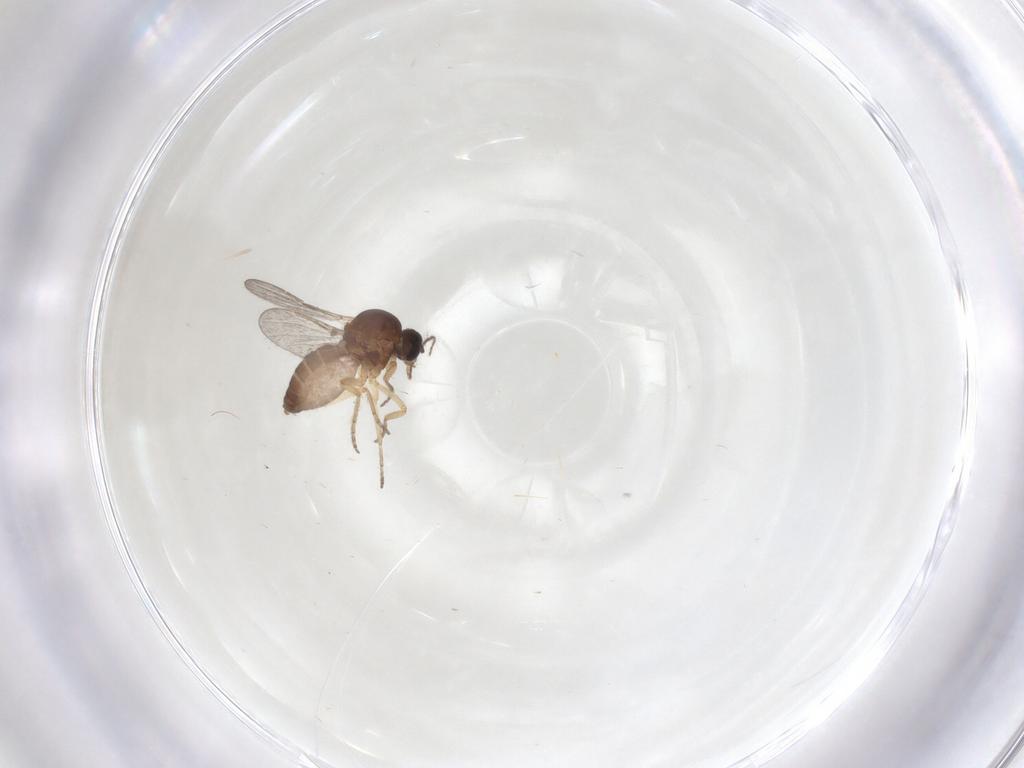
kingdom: Animalia
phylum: Arthropoda
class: Insecta
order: Diptera
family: Ceratopogonidae
